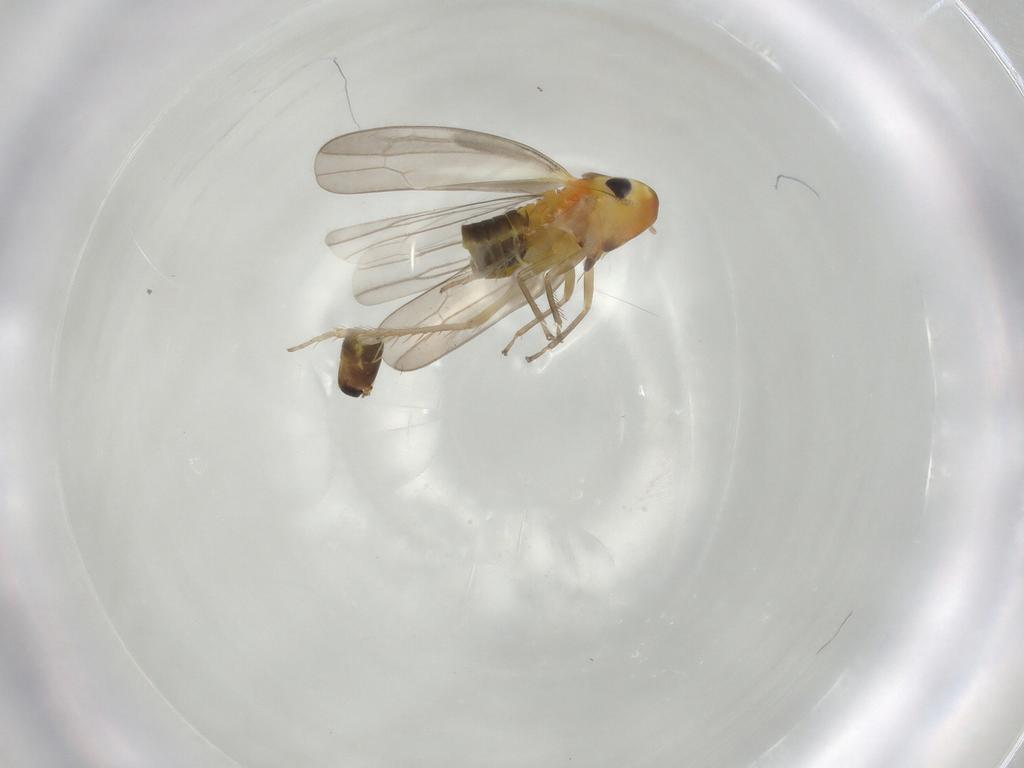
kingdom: Animalia
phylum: Arthropoda
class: Insecta
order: Hemiptera
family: Cicadellidae
